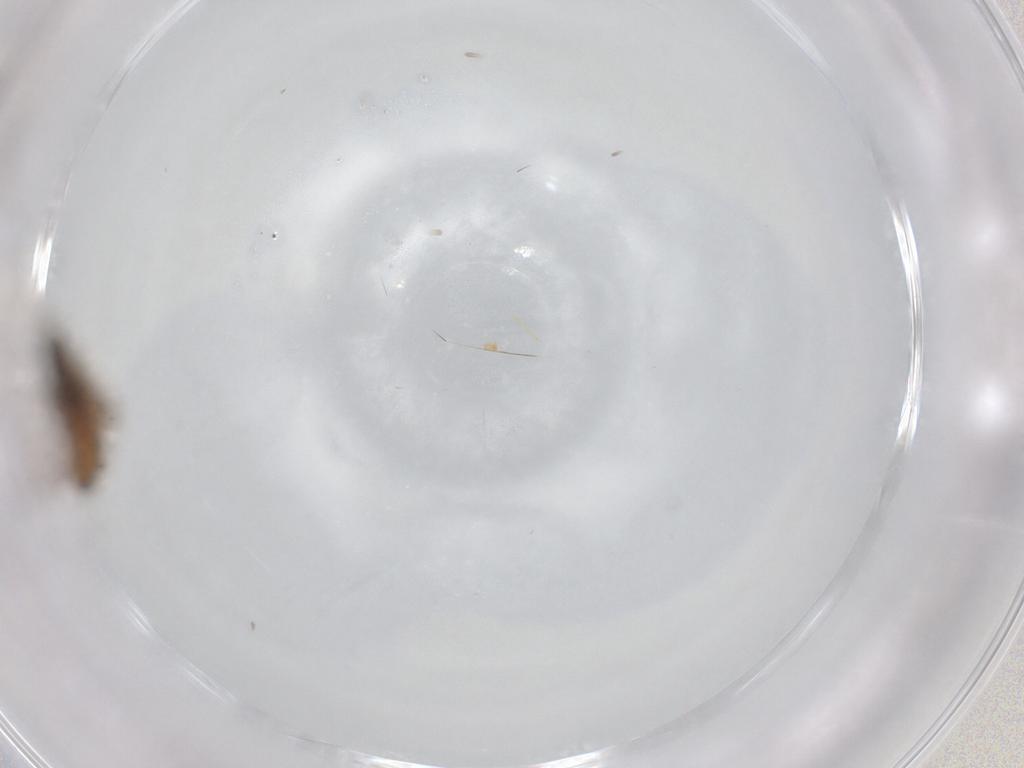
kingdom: Animalia
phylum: Arthropoda
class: Insecta
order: Diptera
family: Sciaridae
